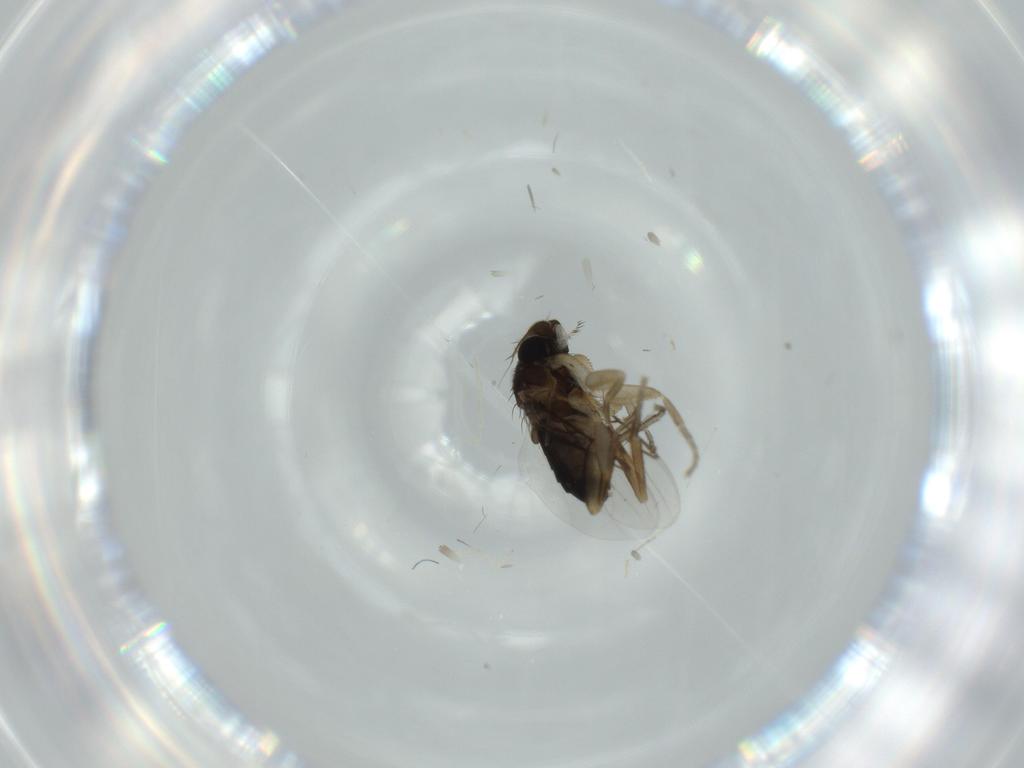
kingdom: Animalia
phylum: Arthropoda
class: Insecta
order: Diptera
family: Phoridae
